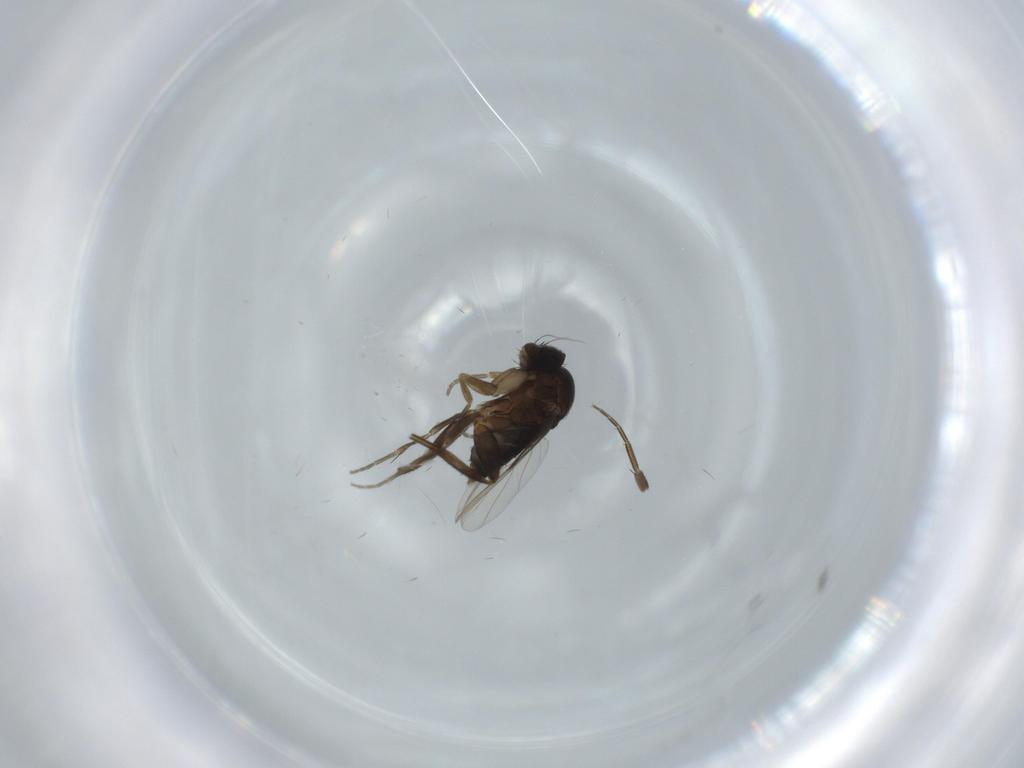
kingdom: Animalia
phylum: Arthropoda
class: Insecta
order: Diptera
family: Phoridae
